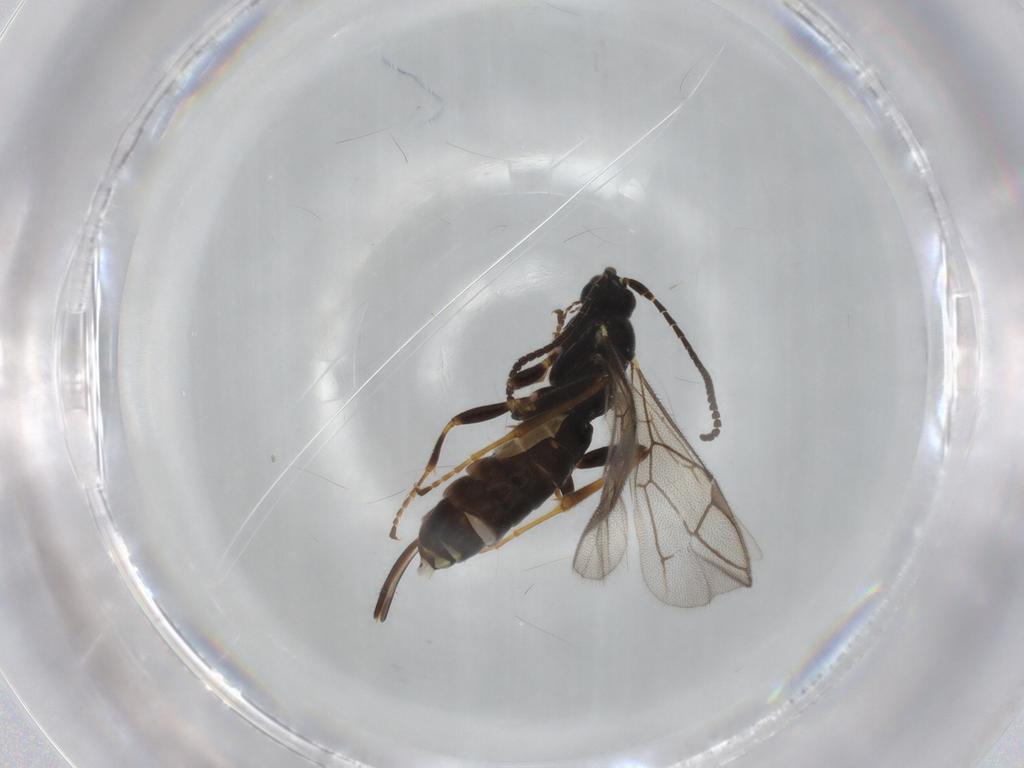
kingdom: Animalia
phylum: Arthropoda
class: Insecta
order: Hymenoptera
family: Ichneumonidae
